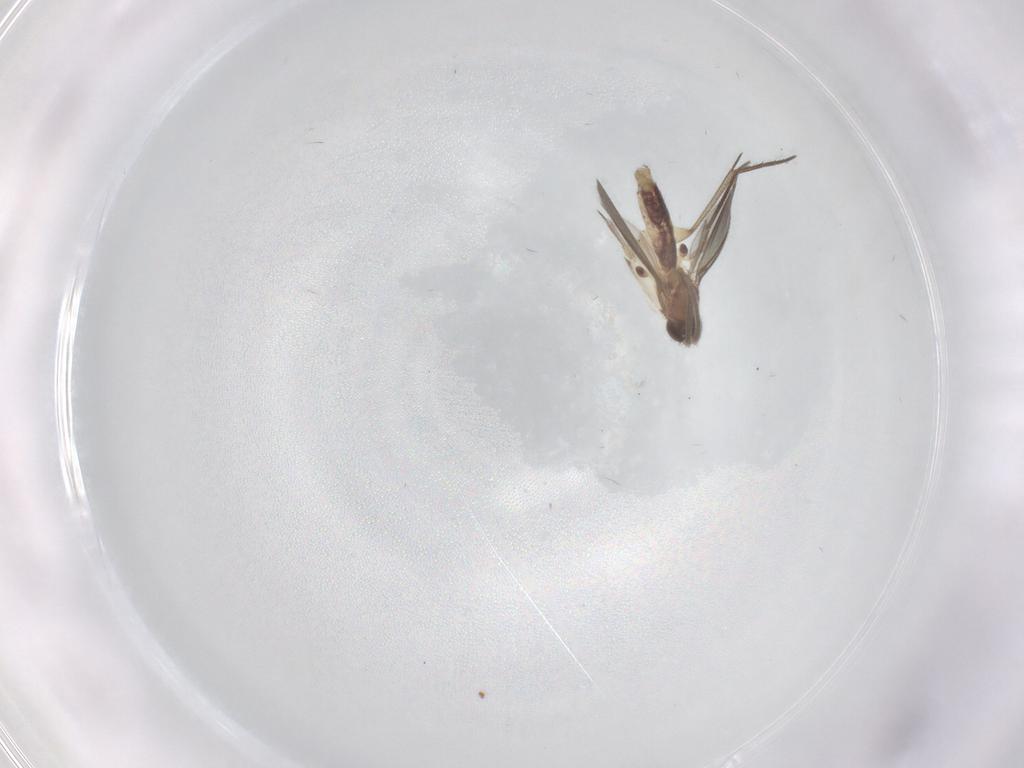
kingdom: Animalia
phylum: Arthropoda
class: Insecta
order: Diptera
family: Mycetophilidae
